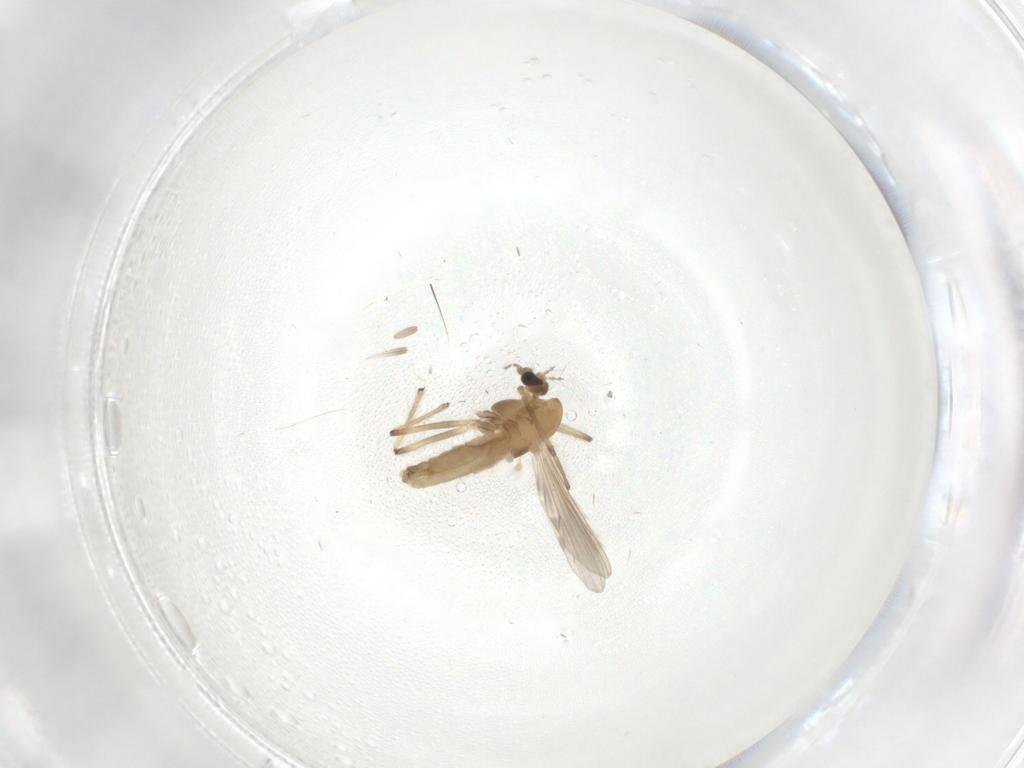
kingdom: Animalia
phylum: Arthropoda
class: Insecta
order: Diptera
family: Chironomidae
